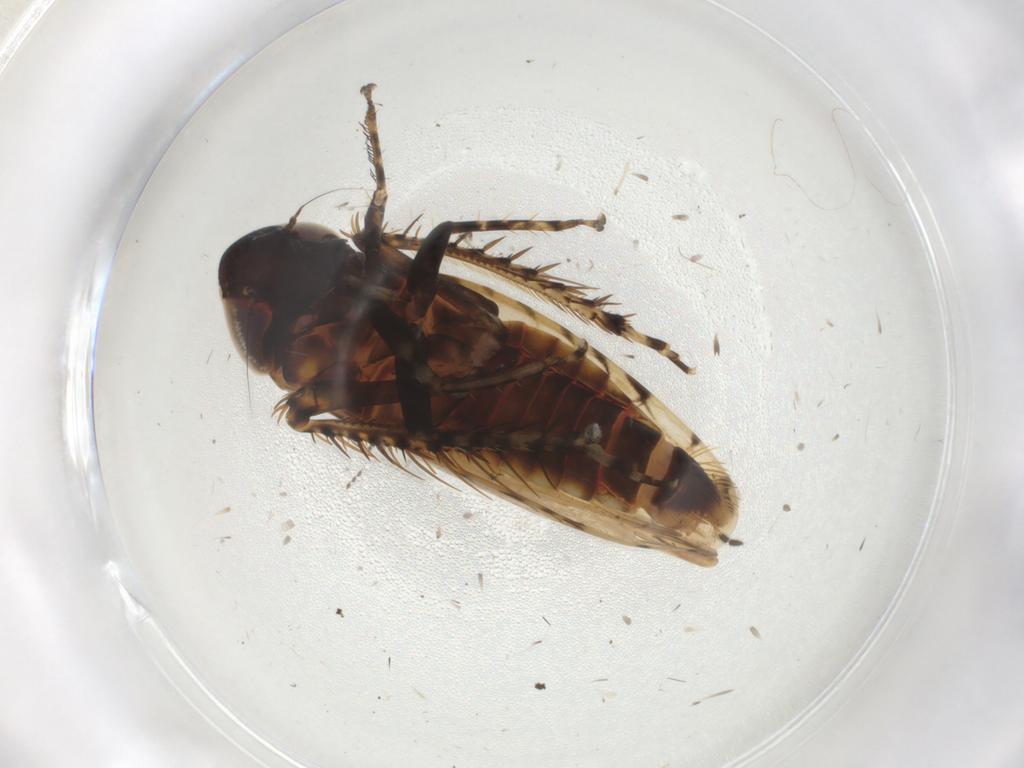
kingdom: Animalia
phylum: Arthropoda
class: Insecta
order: Hemiptera
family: Cicadellidae
